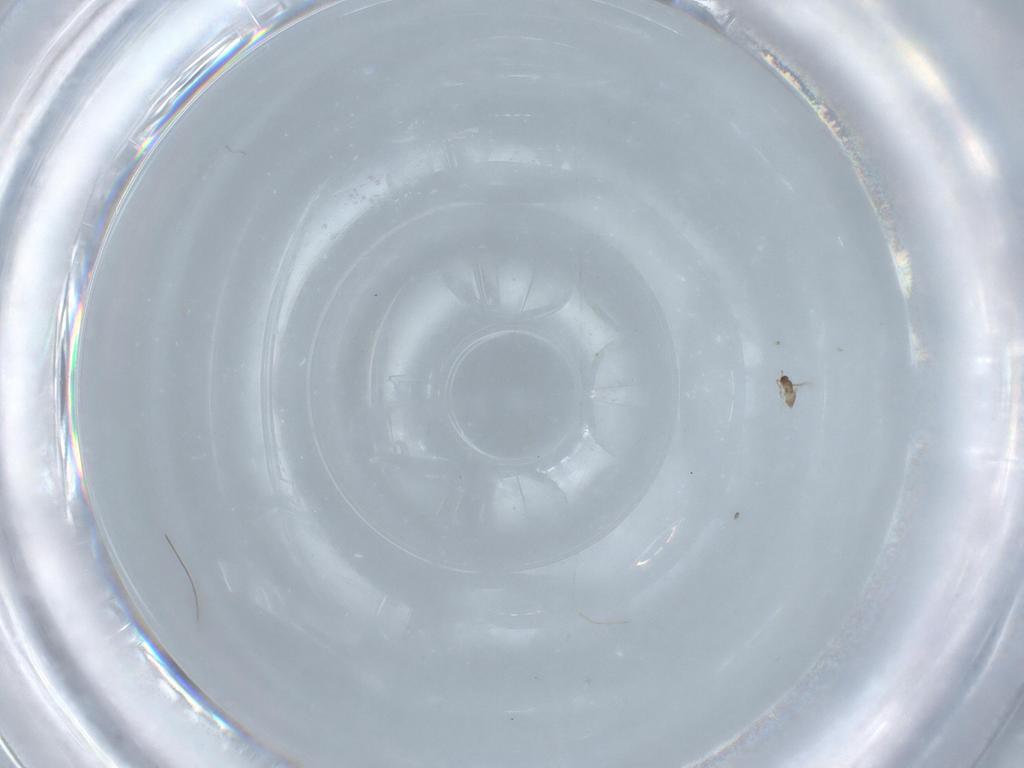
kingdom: Animalia
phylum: Arthropoda
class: Insecta
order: Hymenoptera
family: Mymaridae
